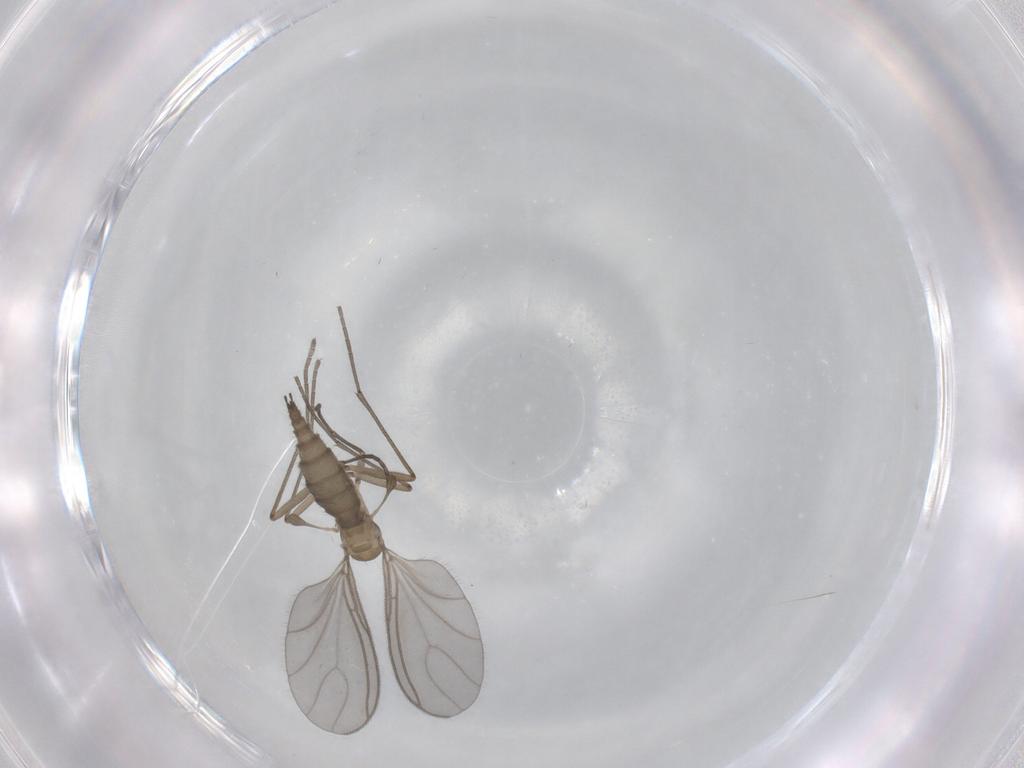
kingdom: Animalia
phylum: Arthropoda
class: Insecta
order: Diptera
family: Sciaridae
